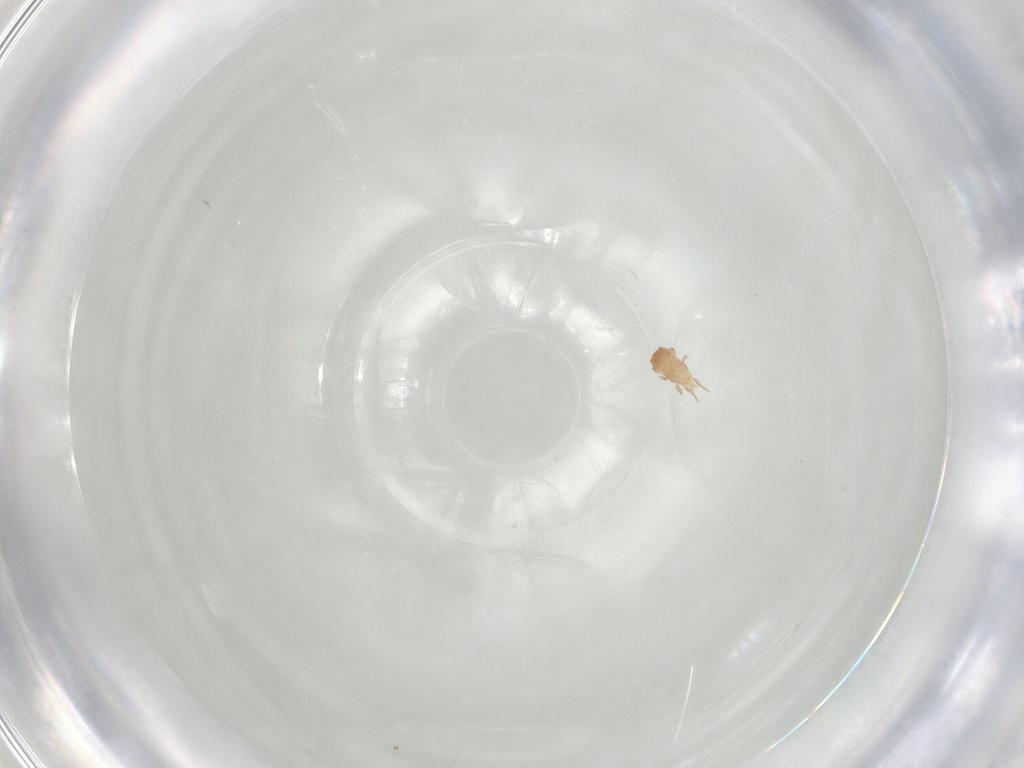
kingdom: Animalia
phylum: Arthropoda
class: Arachnida
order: Mesostigmata
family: Ascidae
